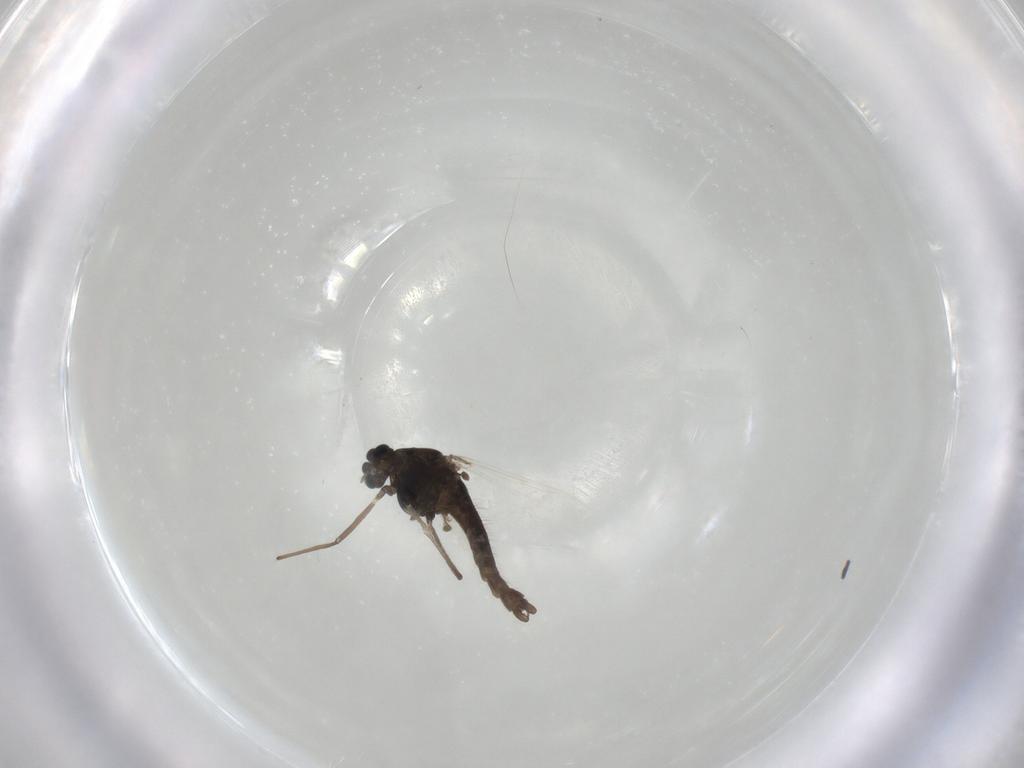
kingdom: Animalia
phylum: Arthropoda
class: Insecta
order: Diptera
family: Chironomidae
